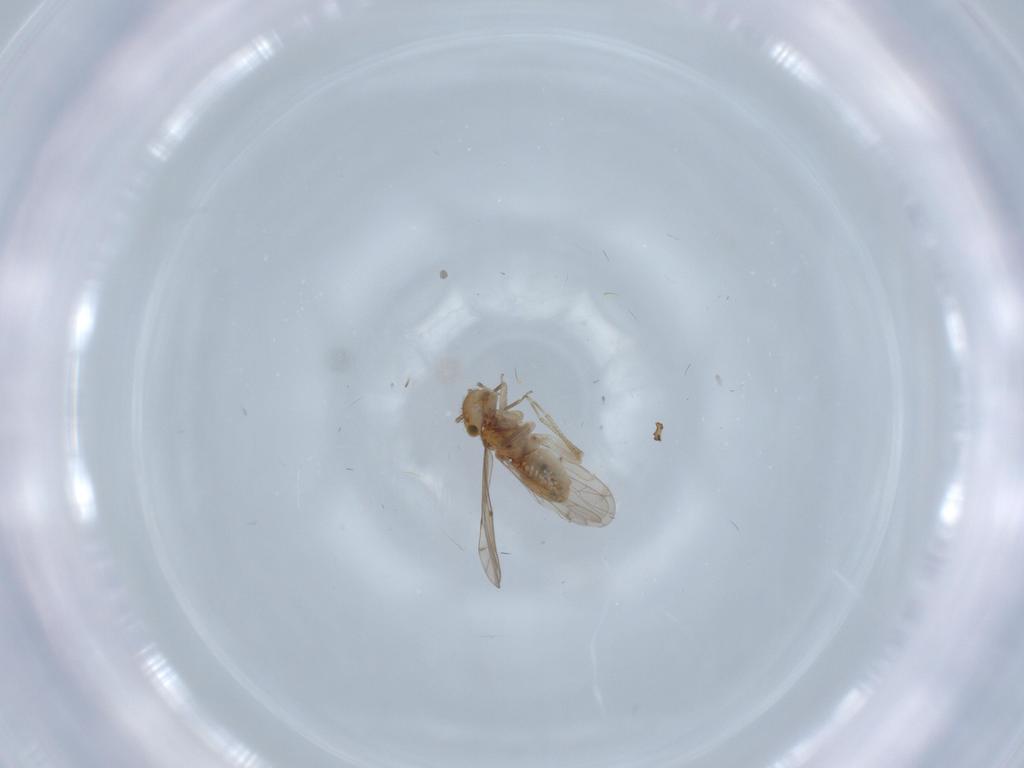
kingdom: Animalia
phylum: Arthropoda
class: Insecta
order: Psocodea
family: Ectopsocidae
